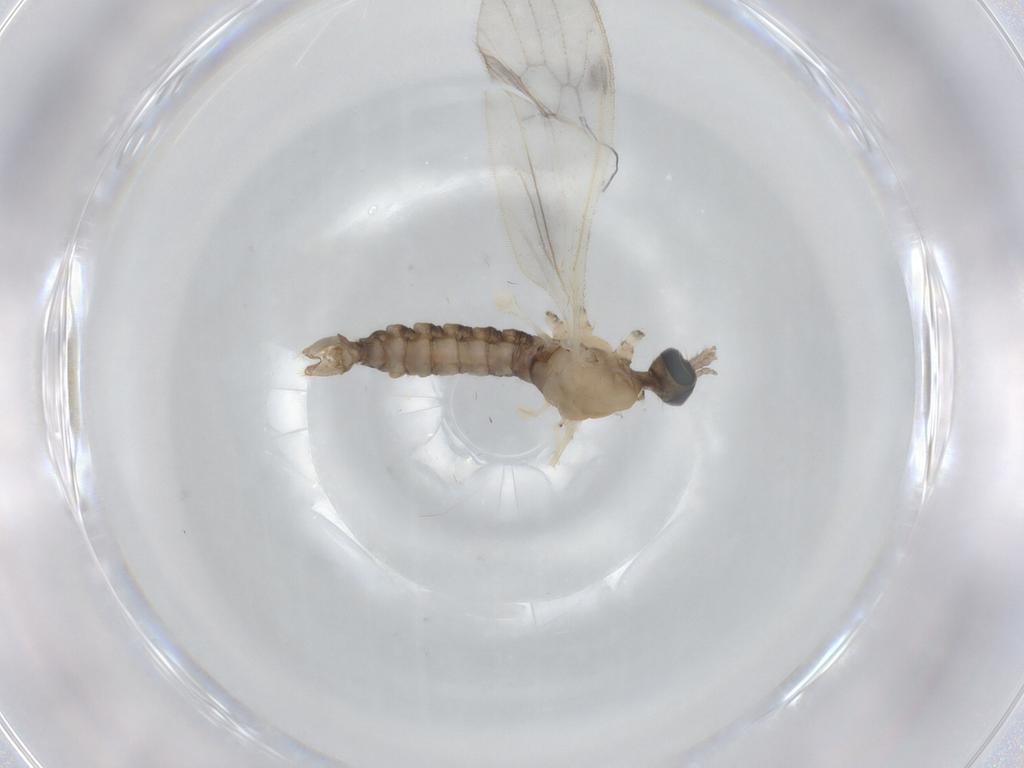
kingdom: Animalia
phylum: Arthropoda
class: Insecta
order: Diptera
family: Limoniidae
